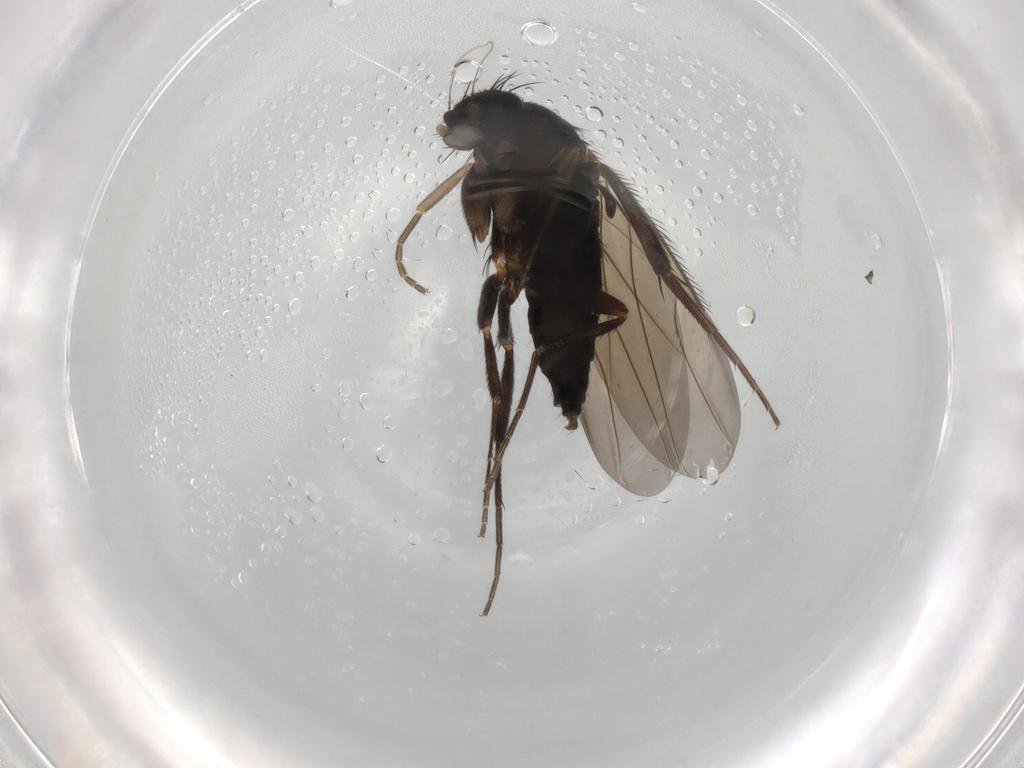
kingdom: Animalia
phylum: Arthropoda
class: Insecta
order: Diptera
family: Phoridae
